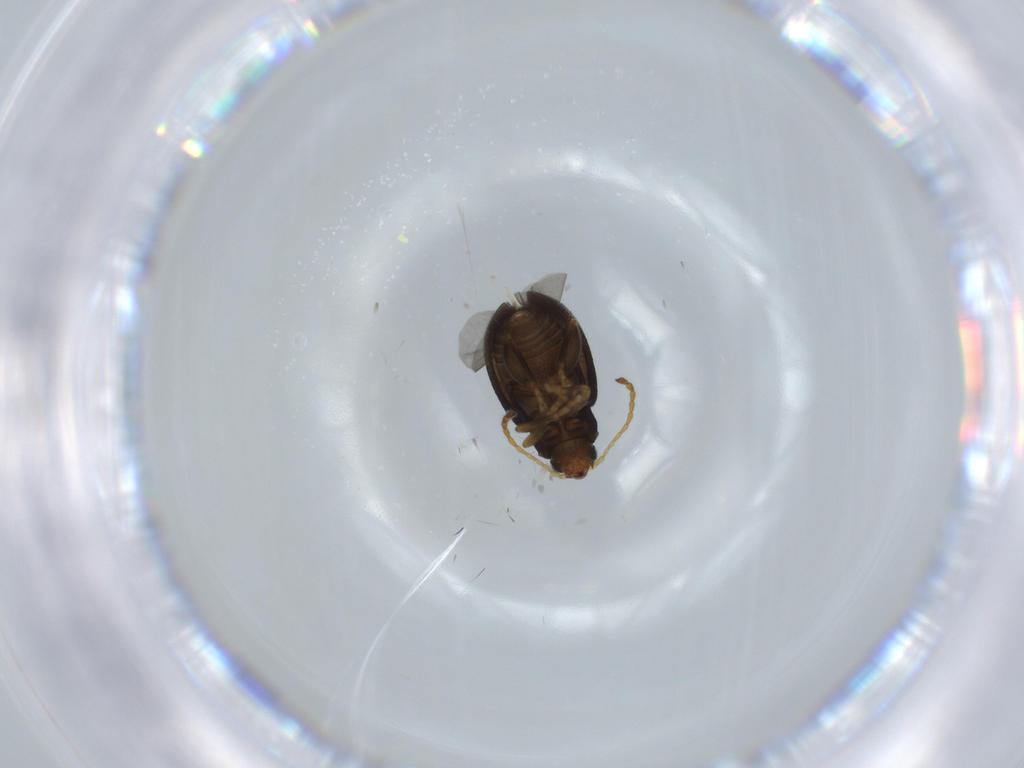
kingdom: Animalia
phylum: Arthropoda
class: Insecta
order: Coleoptera
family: Chrysomelidae
